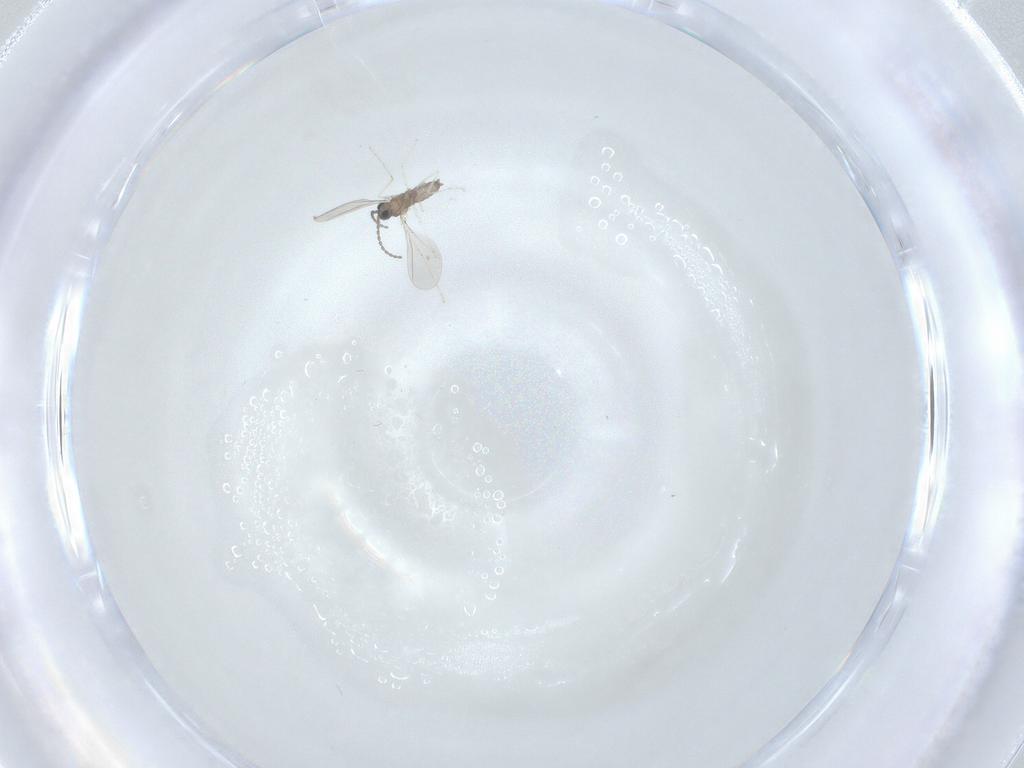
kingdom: Animalia
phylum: Arthropoda
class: Insecta
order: Diptera
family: Cecidomyiidae
